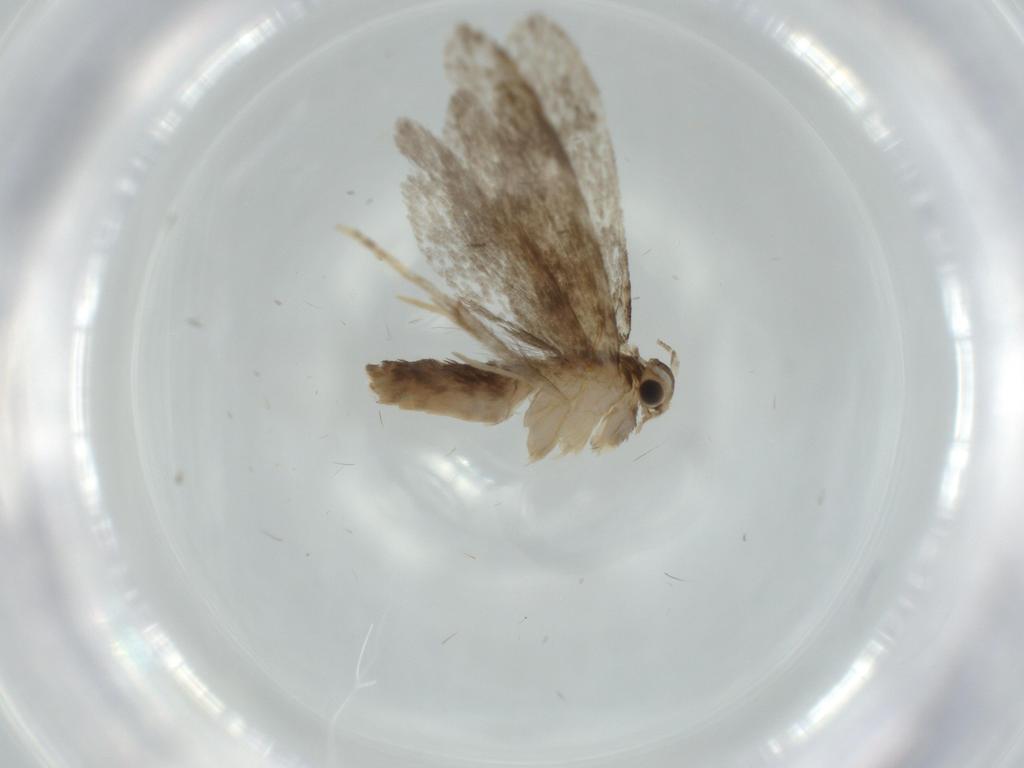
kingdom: Animalia
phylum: Arthropoda
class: Insecta
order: Lepidoptera
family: Tineidae
